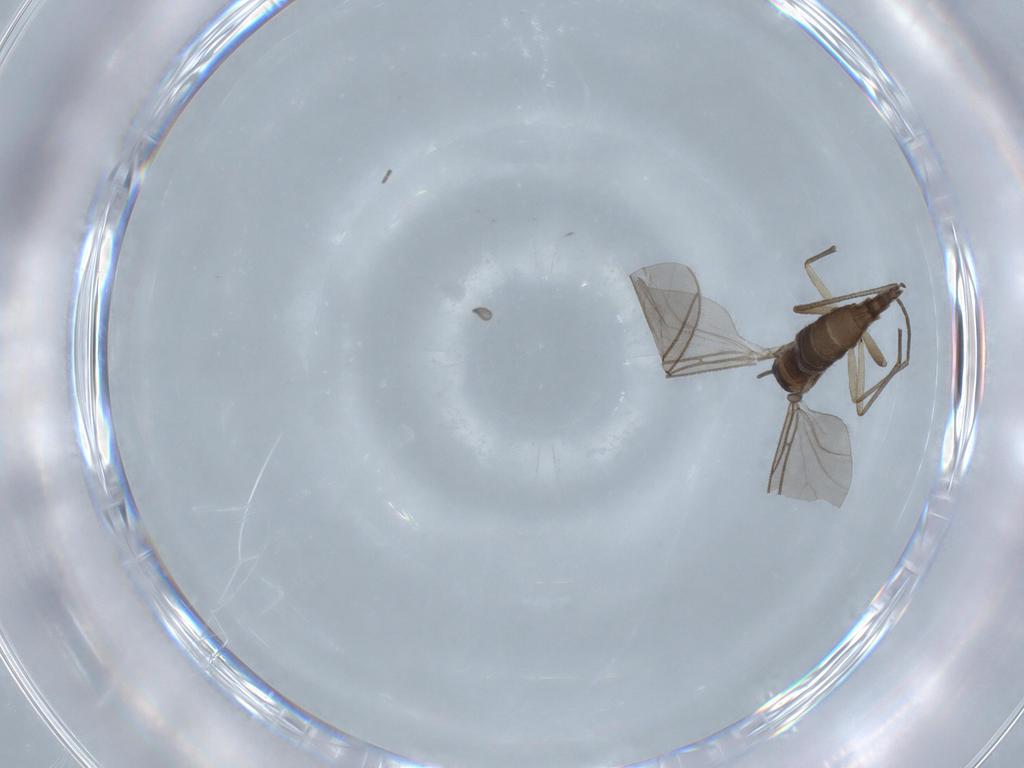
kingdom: Animalia
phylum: Arthropoda
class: Insecta
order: Diptera
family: Sciaridae
